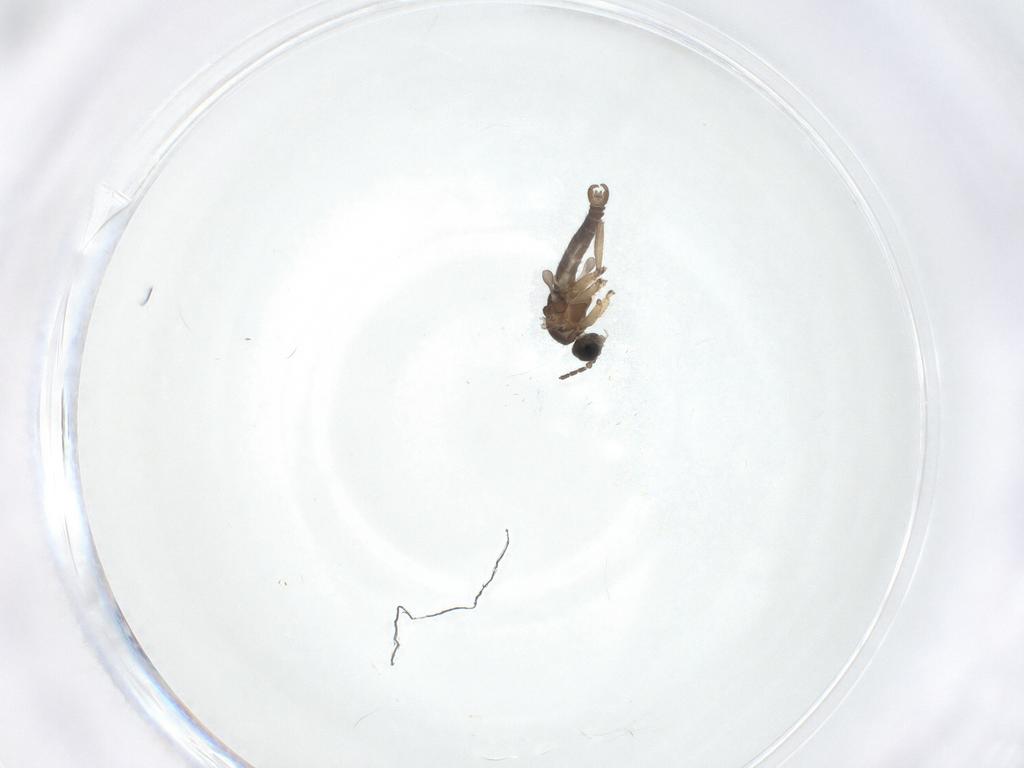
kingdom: Animalia
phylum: Arthropoda
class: Insecta
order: Diptera
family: Sciaridae
